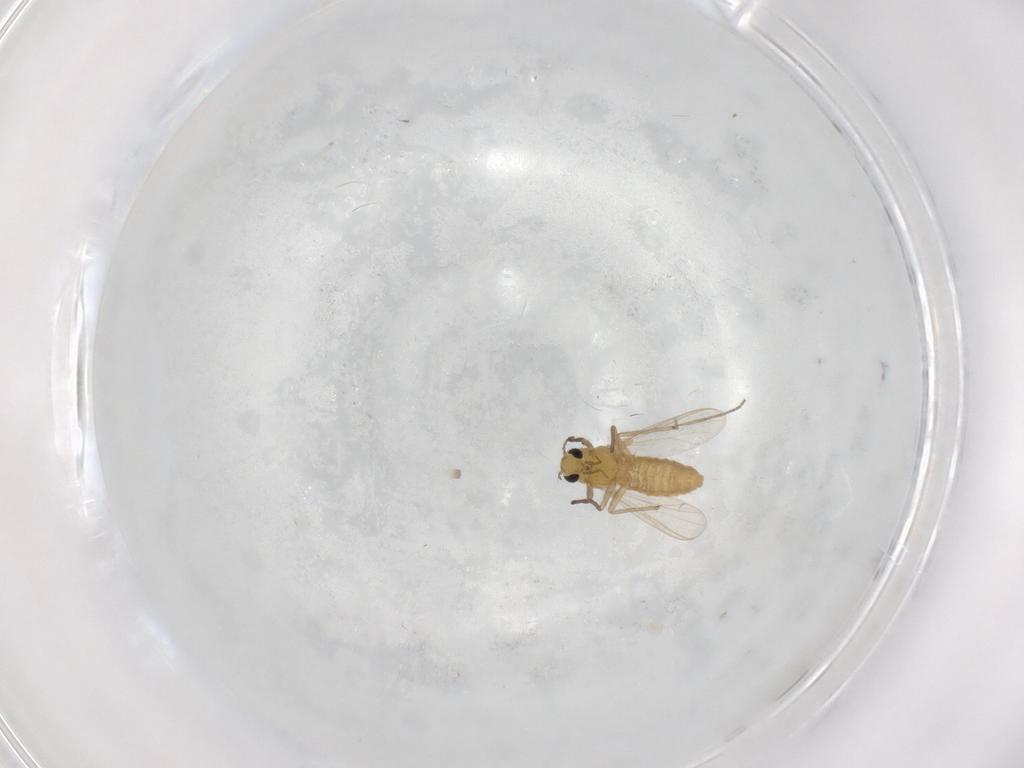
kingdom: Animalia
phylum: Arthropoda
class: Insecta
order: Diptera
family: Chironomidae
